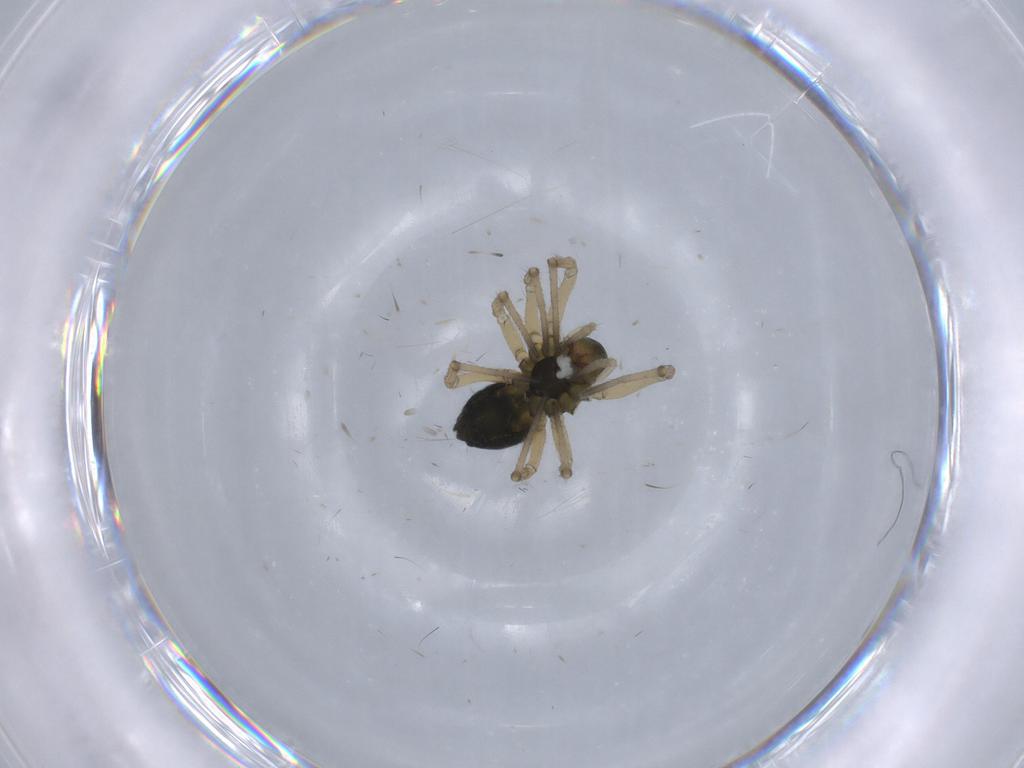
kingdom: Animalia
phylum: Arthropoda
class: Arachnida
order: Araneae
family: Linyphiidae
